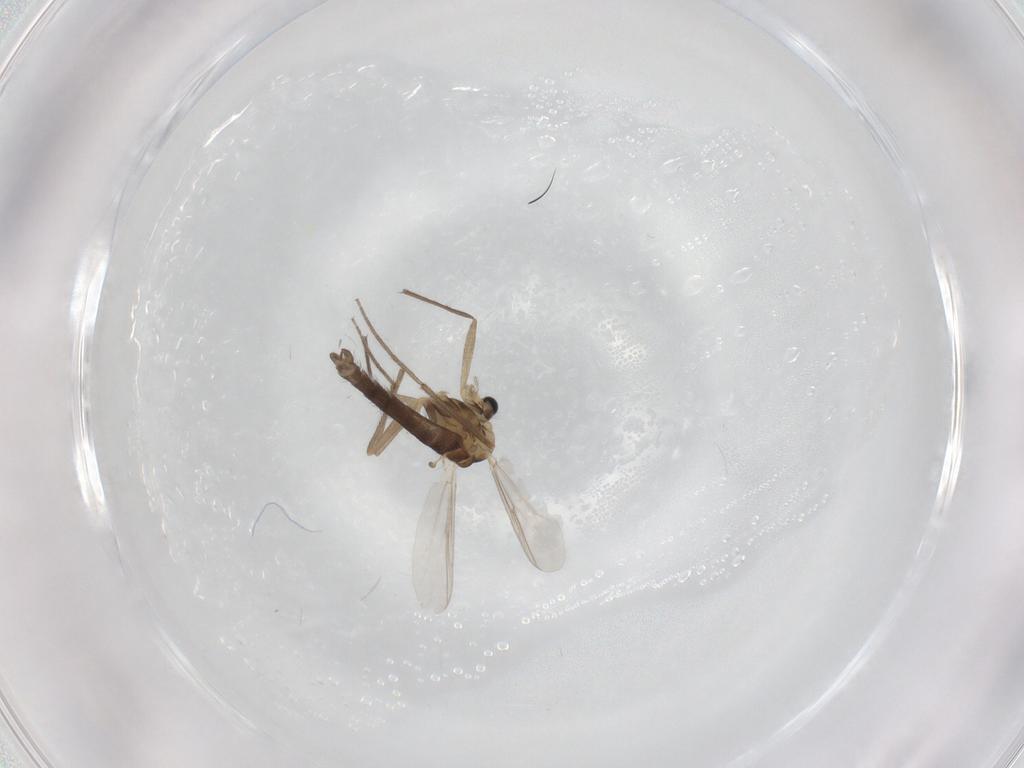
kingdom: Animalia
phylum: Arthropoda
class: Insecta
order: Diptera
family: Chironomidae
